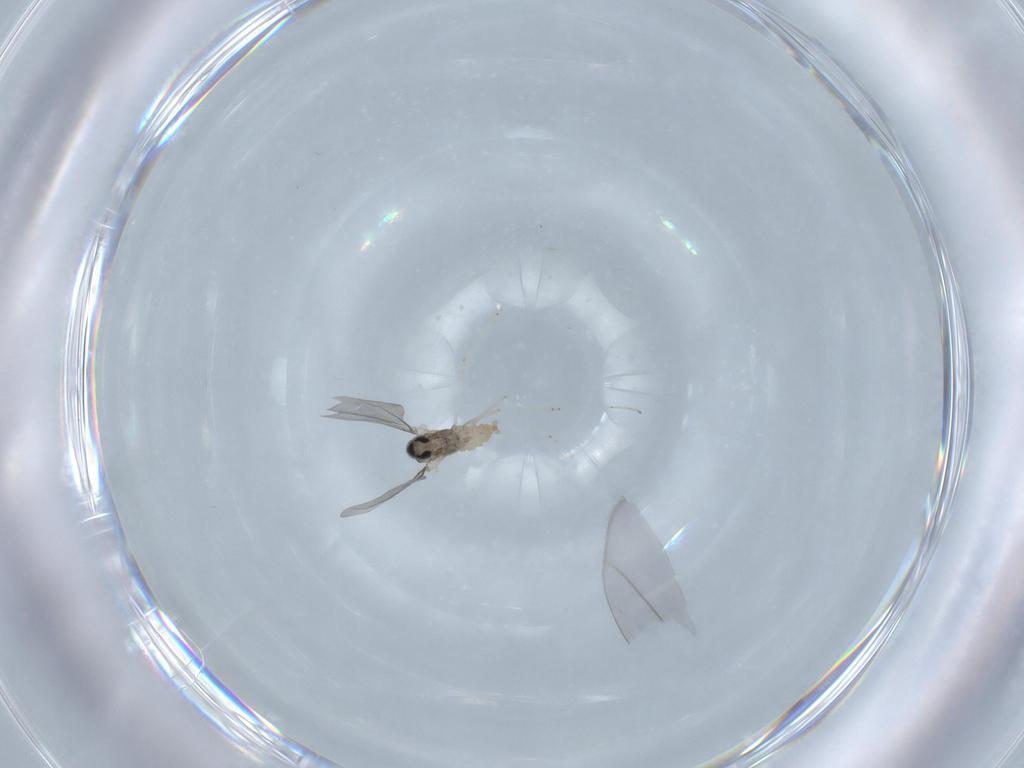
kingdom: Animalia
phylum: Arthropoda
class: Insecta
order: Diptera
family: Cecidomyiidae
